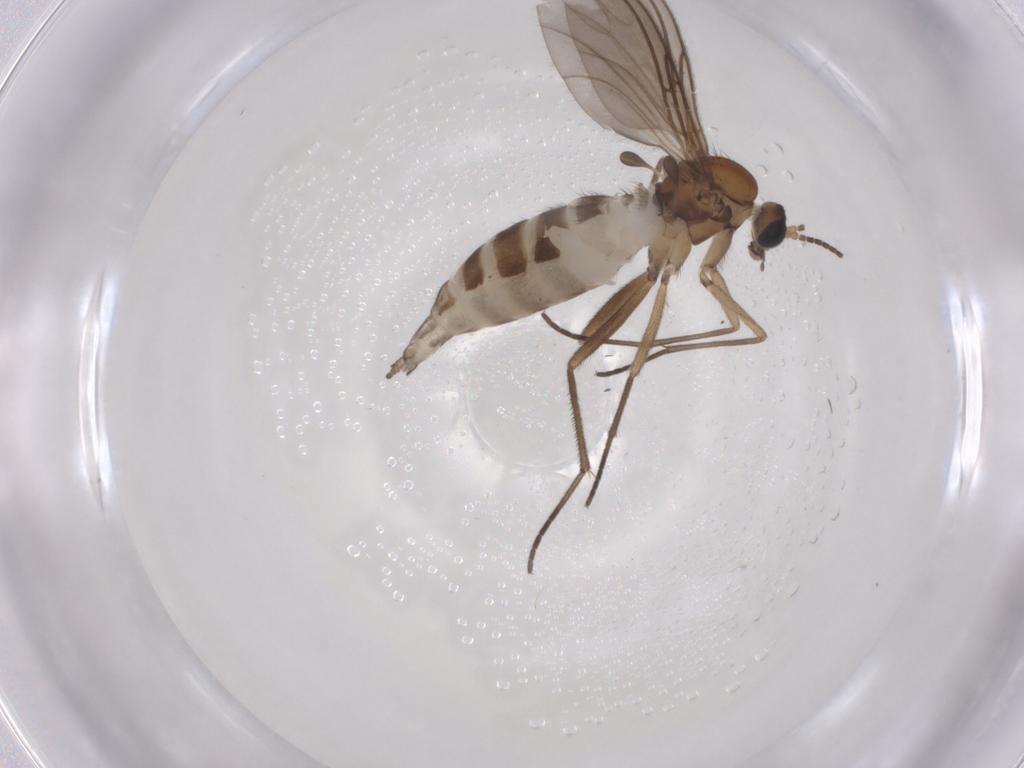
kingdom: Animalia
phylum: Arthropoda
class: Insecta
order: Diptera
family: Sciaridae
